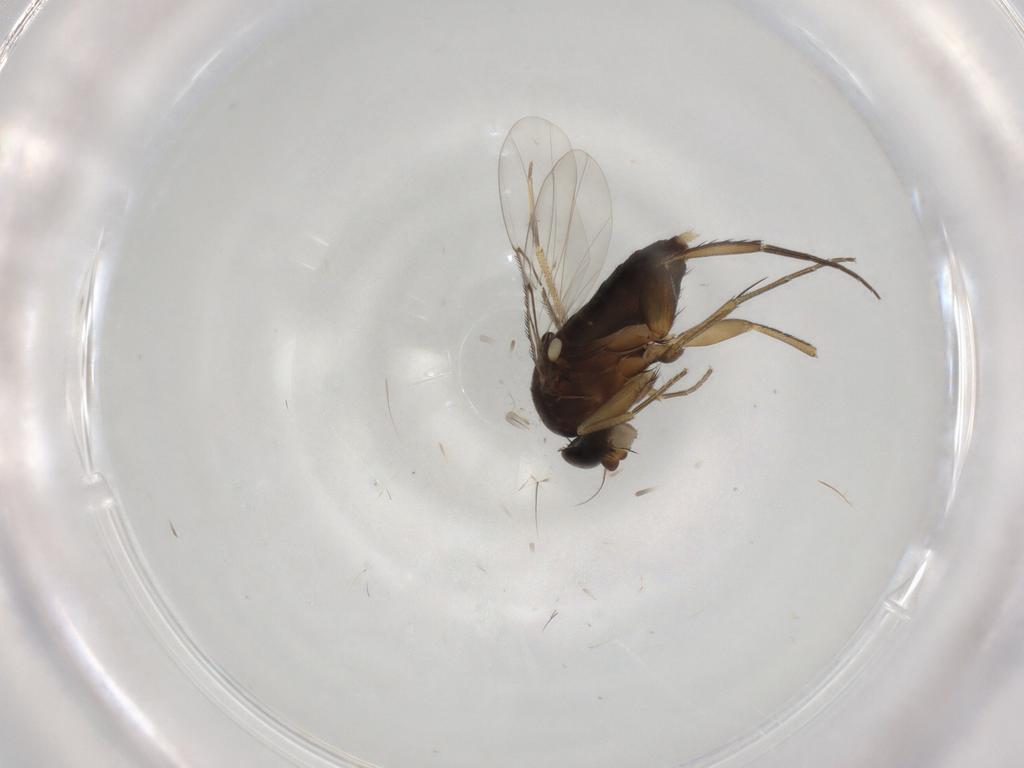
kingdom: Animalia
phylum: Arthropoda
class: Insecta
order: Diptera
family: Phoridae
